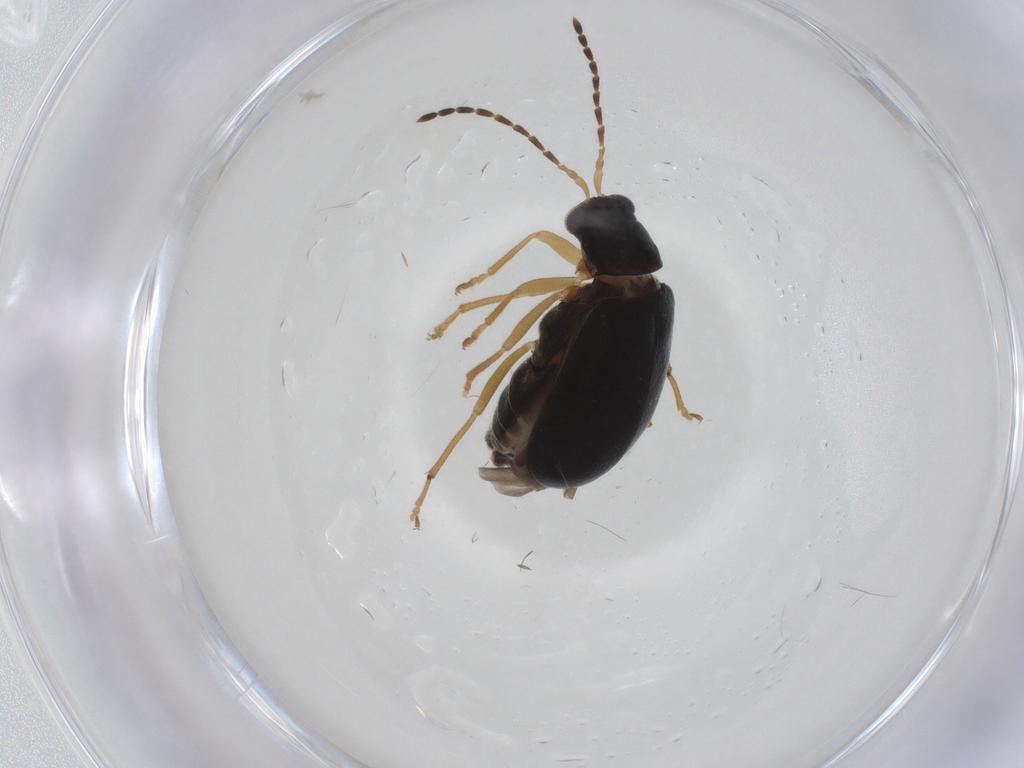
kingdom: Animalia
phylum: Arthropoda
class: Insecta
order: Coleoptera
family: Chrysomelidae
